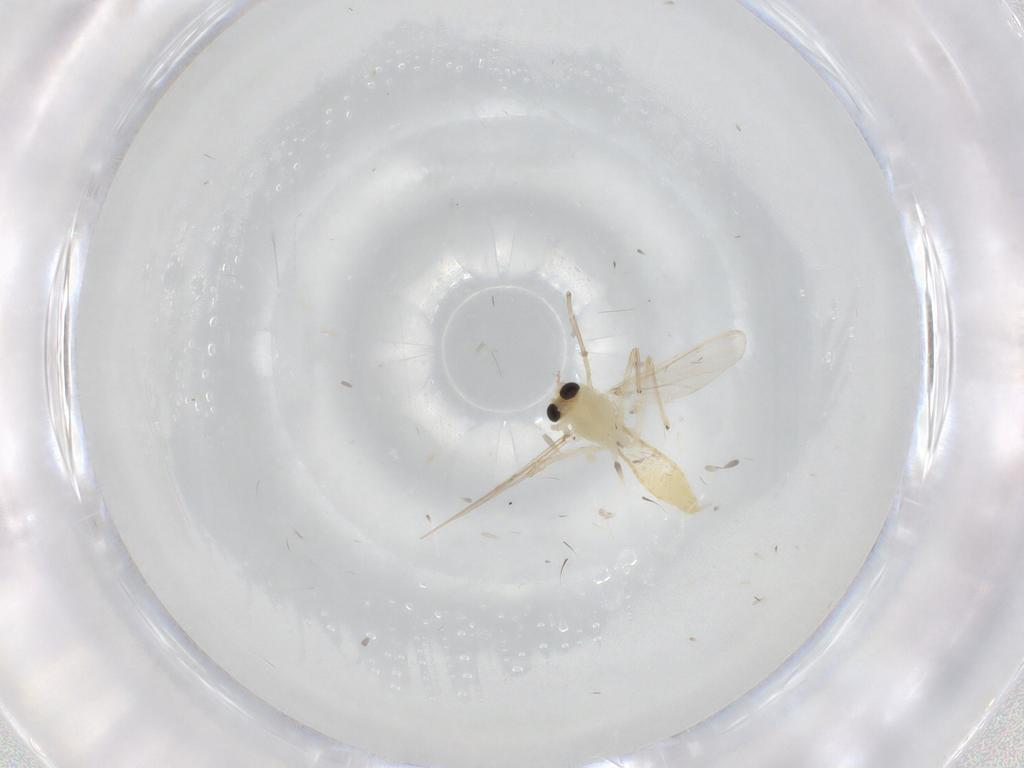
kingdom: Animalia
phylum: Arthropoda
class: Insecta
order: Diptera
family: Chironomidae
